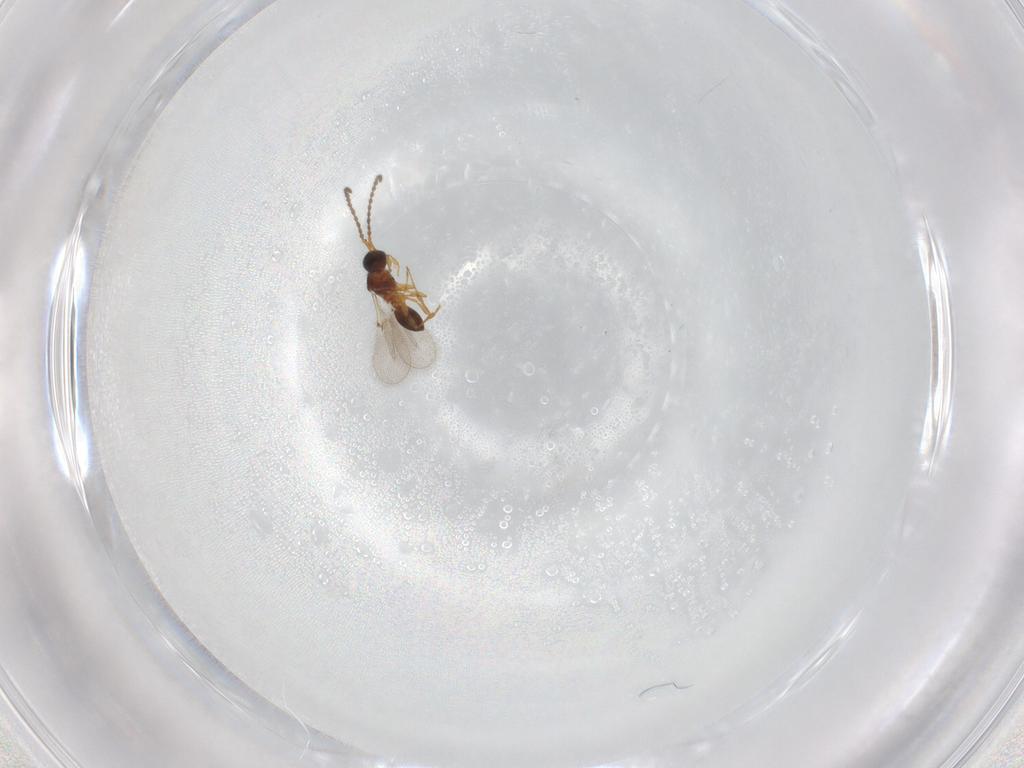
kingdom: Animalia
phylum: Arthropoda
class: Insecta
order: Hymenoptera
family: Diapriidae
